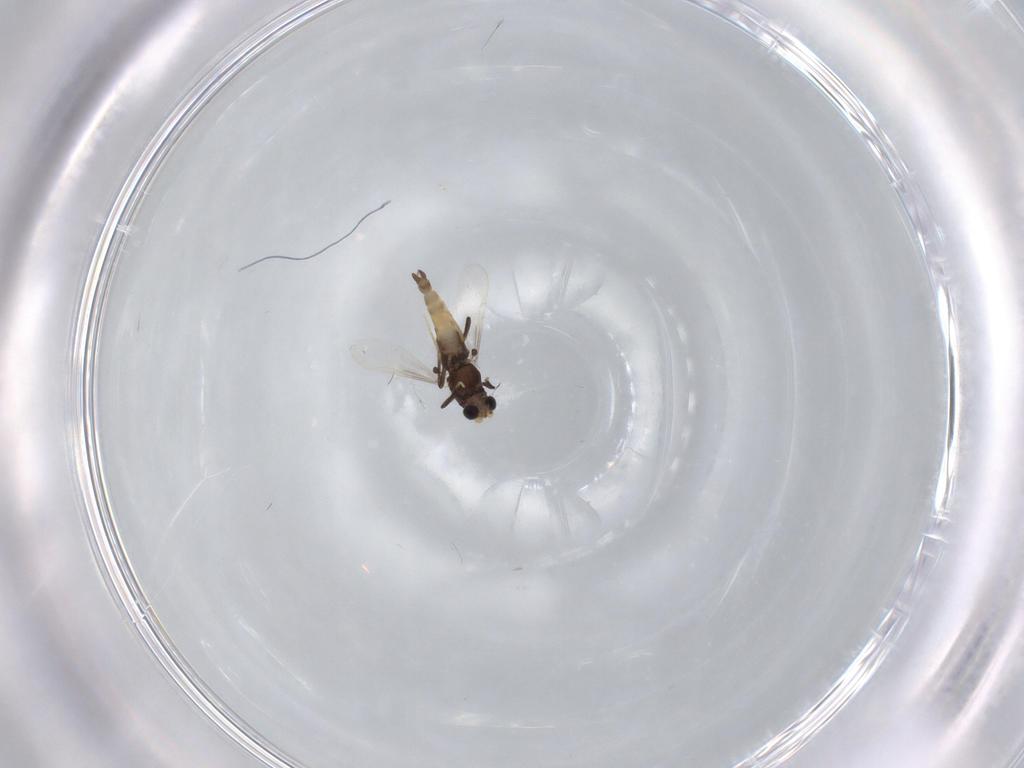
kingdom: Animalia
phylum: Arthropoda
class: Insecta
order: Diptera
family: Chironomidae
